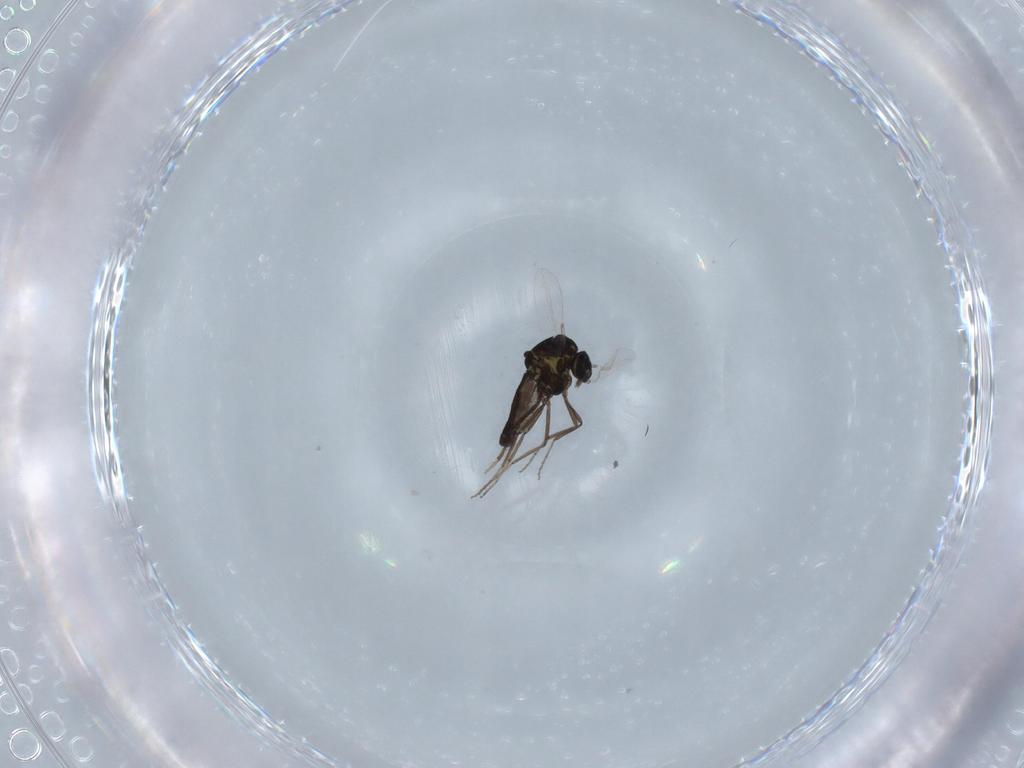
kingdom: Animalia
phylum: Arthropoda
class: Insecta
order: Diptera
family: Ceratopogonidae
